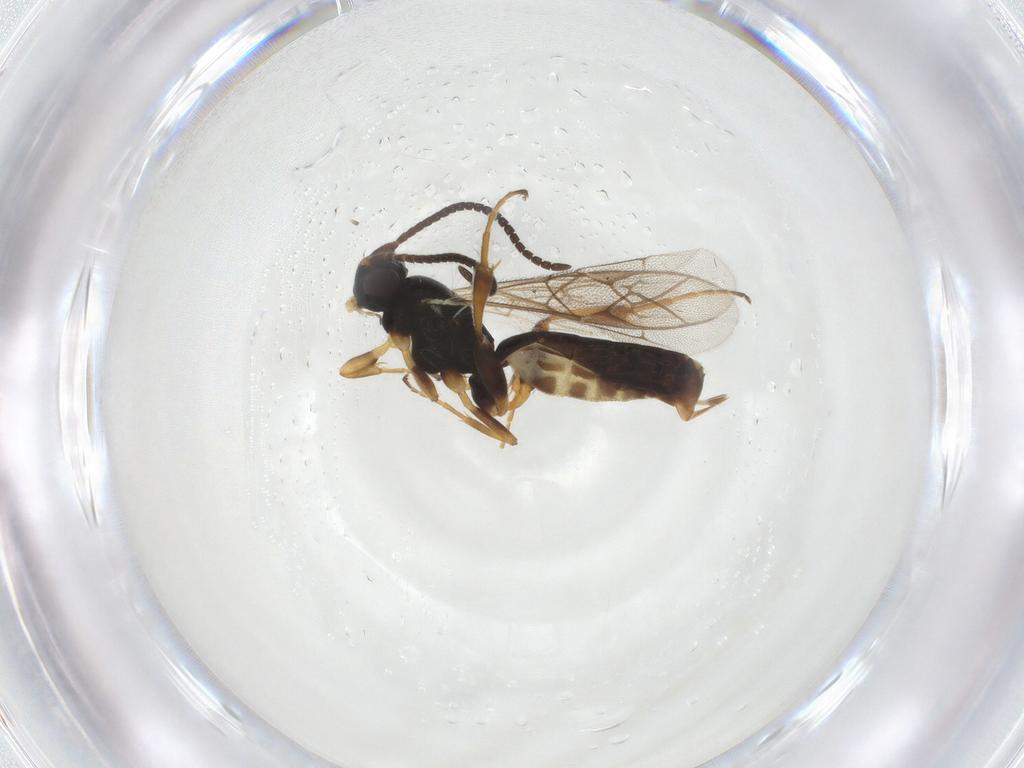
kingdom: Animalia
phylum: Arthropoda
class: Insecta
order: Hymenoptera
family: Ichneumonidae
